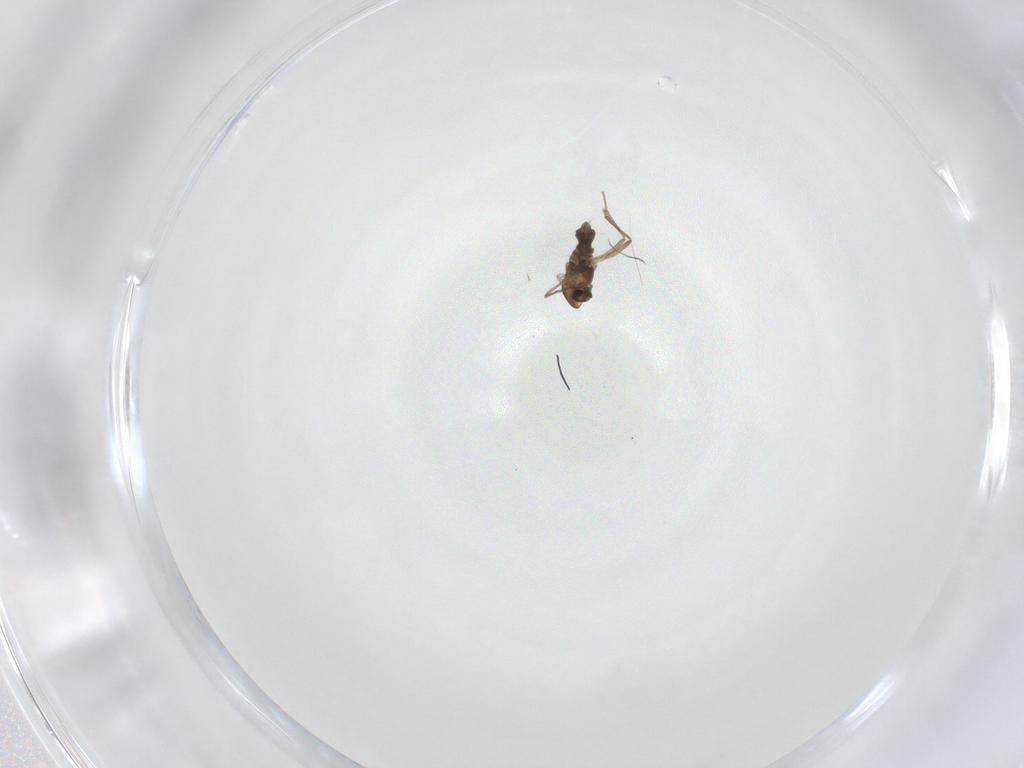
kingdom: Animalia
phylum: Arthropoda
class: Insecta
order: Diptera
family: Chironomidae
